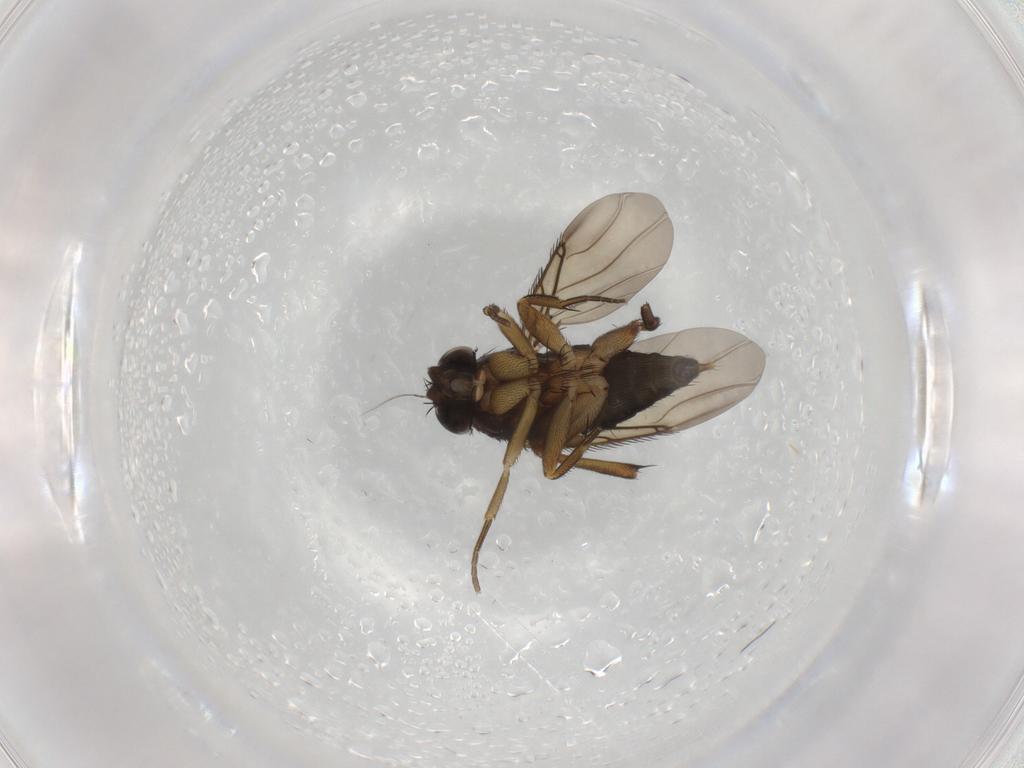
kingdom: Animalia
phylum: Arthropoda
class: Insecta
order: Diptera
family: Phoridae
